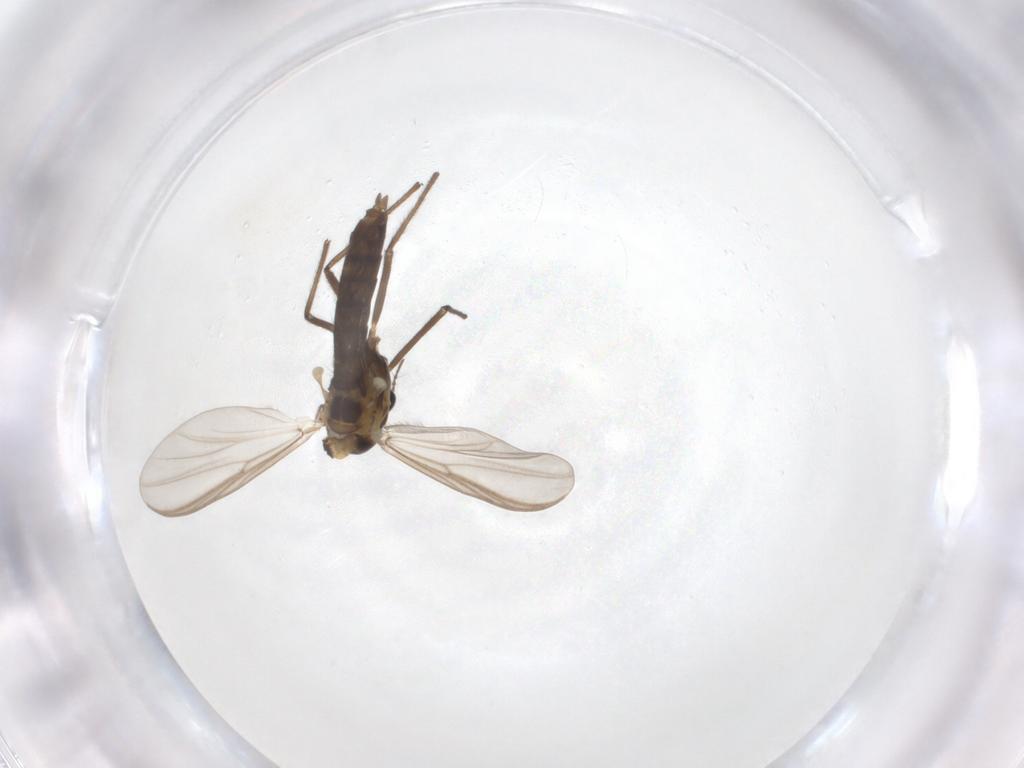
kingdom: Animalia
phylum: Arthropoda
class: Insecta
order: Diptera
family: Chironomidae
